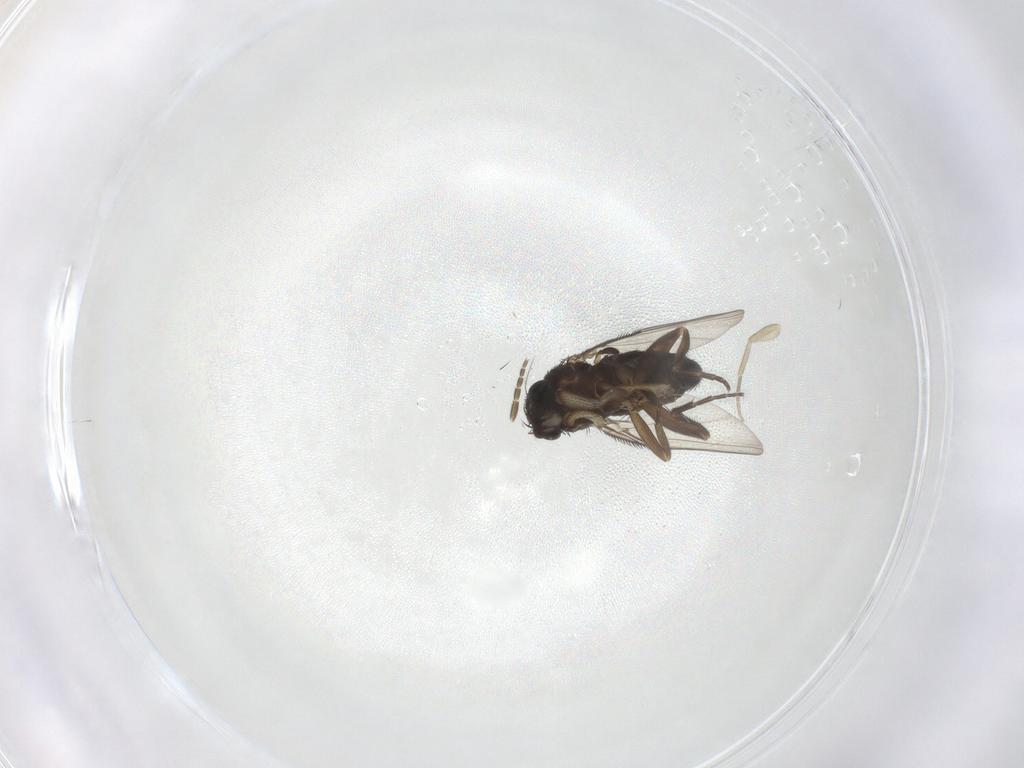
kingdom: Animalia
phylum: Arthropoda
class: Insecta
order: Diptera
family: Phoridae
